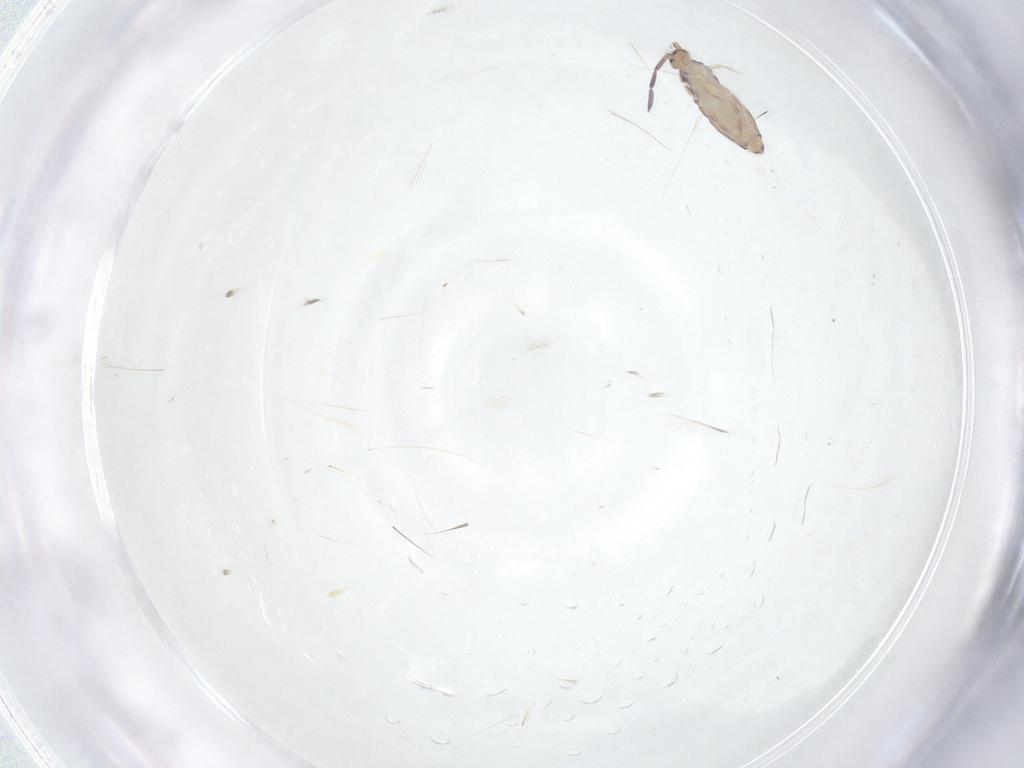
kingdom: Animalia
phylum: Arthropoda
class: Collembola
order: Entomobryomorpha
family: Entomobryidae
